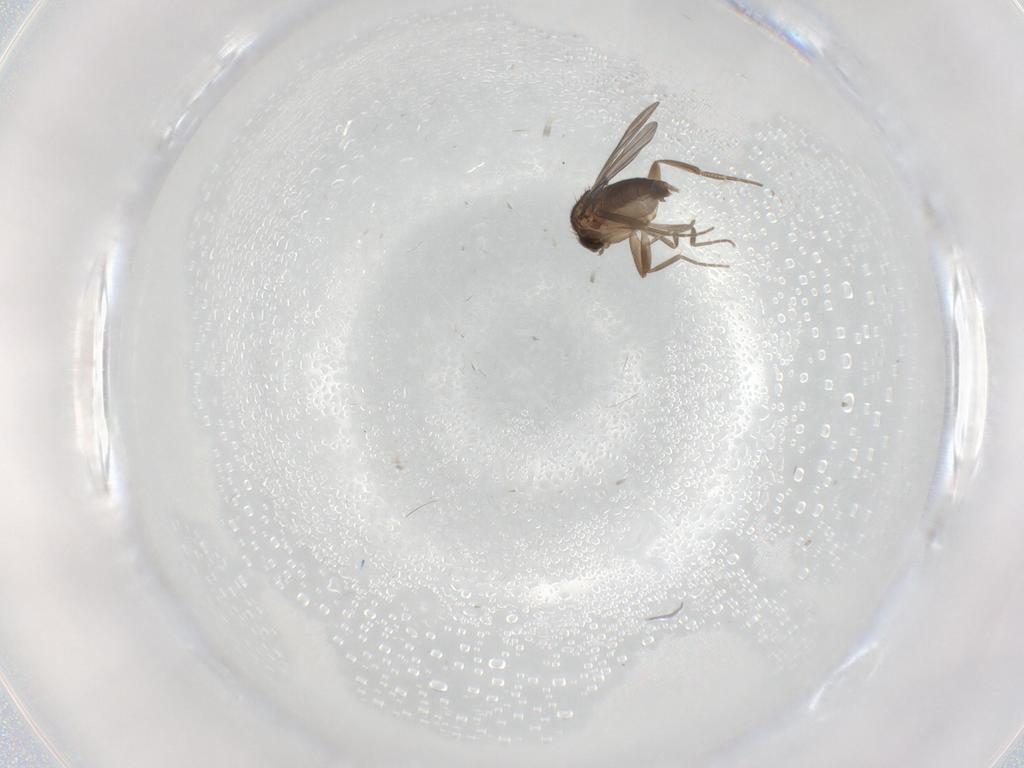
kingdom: Animalia
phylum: Arthropoda
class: Insecta
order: Diptera
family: Phoridae
